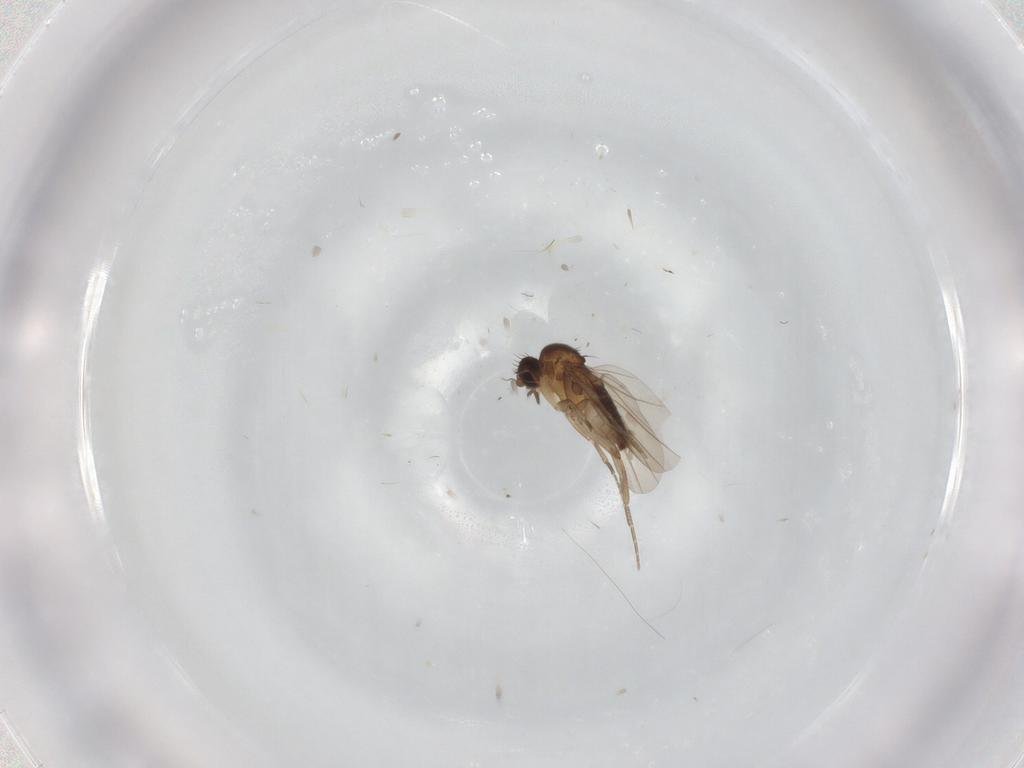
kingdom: Animalia
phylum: Arthropoda
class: Insecta
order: Diptera
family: Phoridae
